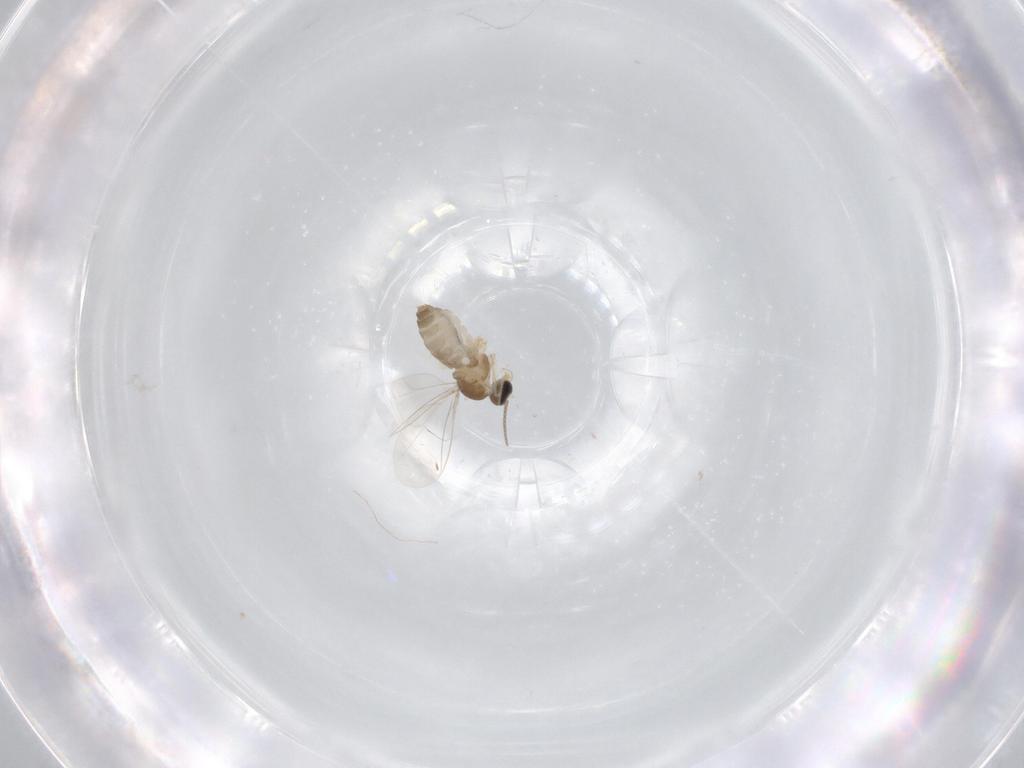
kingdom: Animalia
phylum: Arthropoda
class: Insecta
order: Diptera
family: Cecidomyiidae
